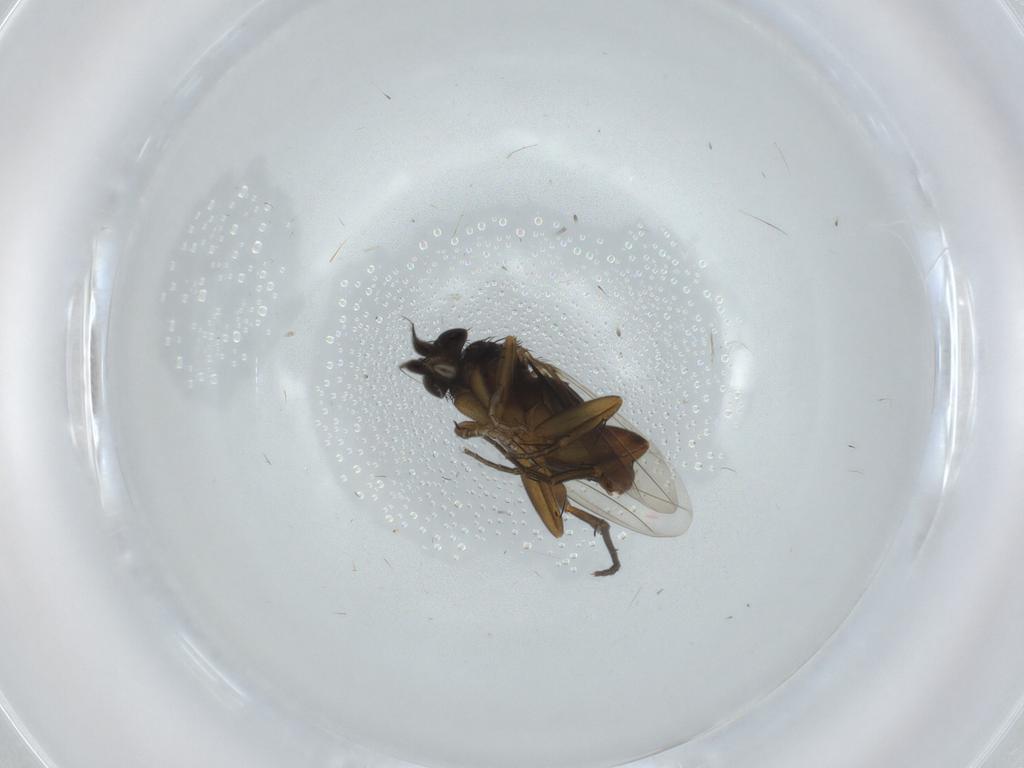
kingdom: Animalia
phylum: Arthropoda
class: Insecta
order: Diptera
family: Phoridae
